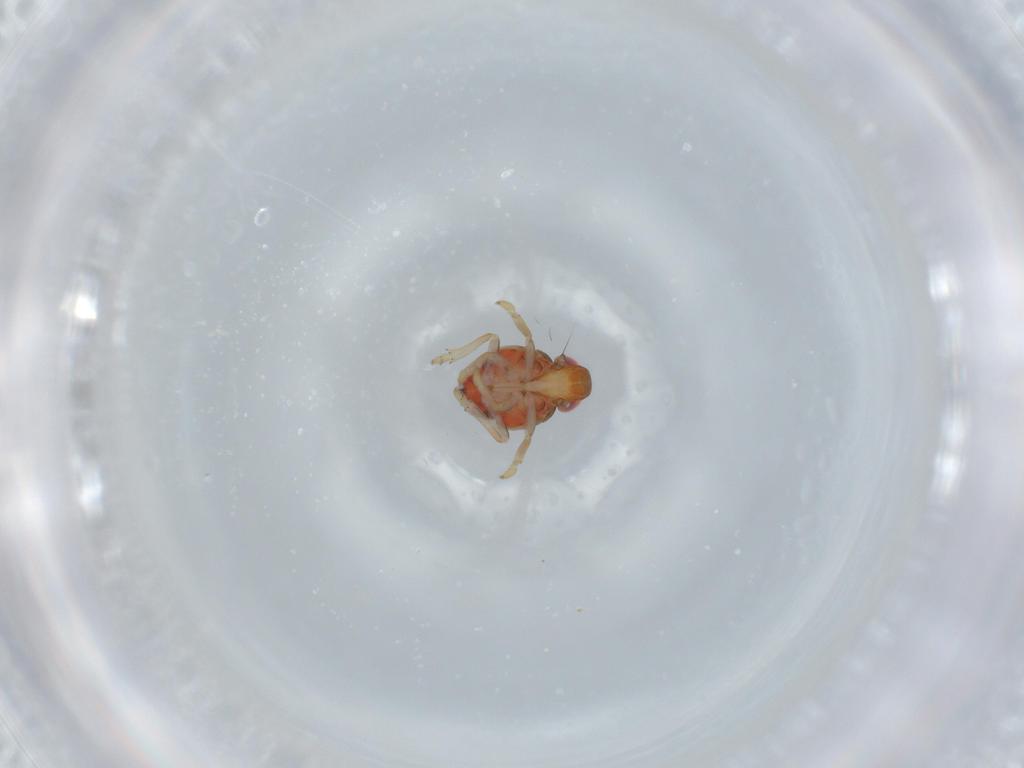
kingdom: Animalia
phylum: Arthropoda
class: Insecta
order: Hemiptera
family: Issidae
